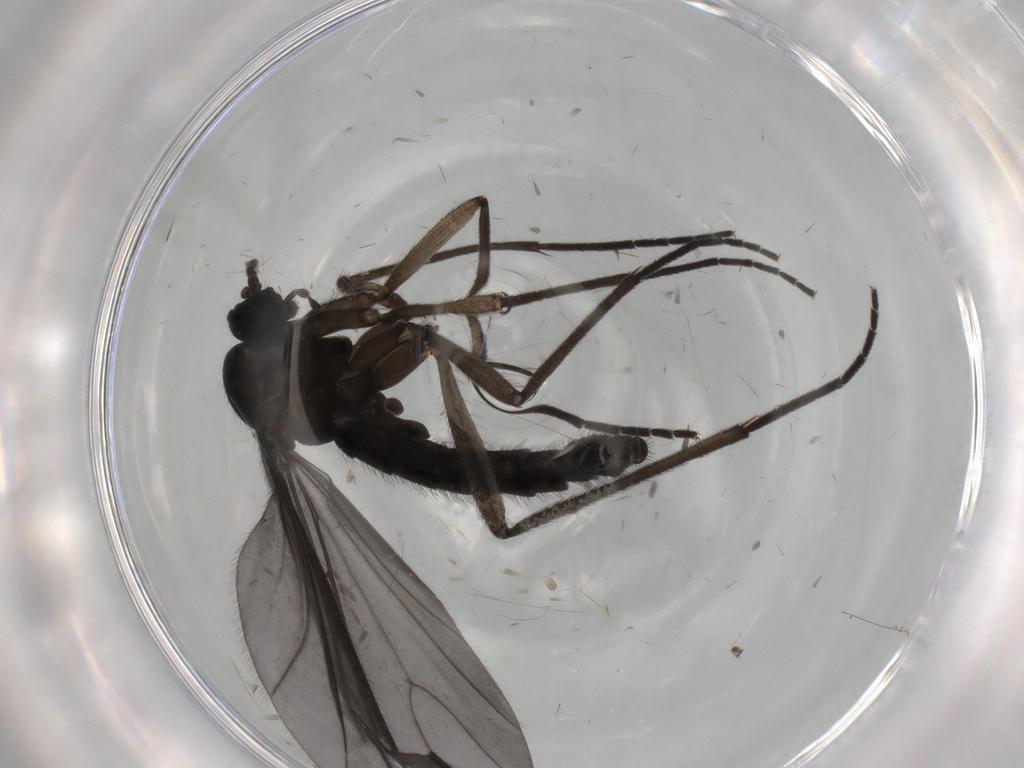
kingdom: Animalia
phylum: Arthropoda
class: Insecta
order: Diptera
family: Sciaridae
